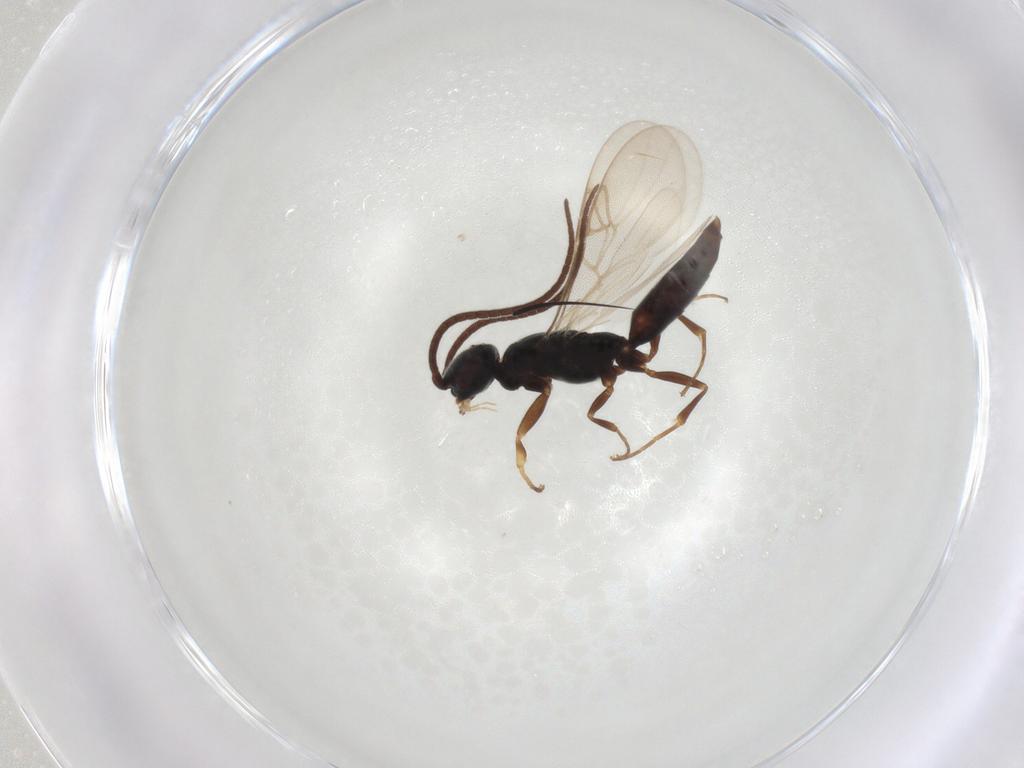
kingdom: Animalia
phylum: Arthropoda
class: Insecta
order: Hymenoptera
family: Sclerogibbidae
